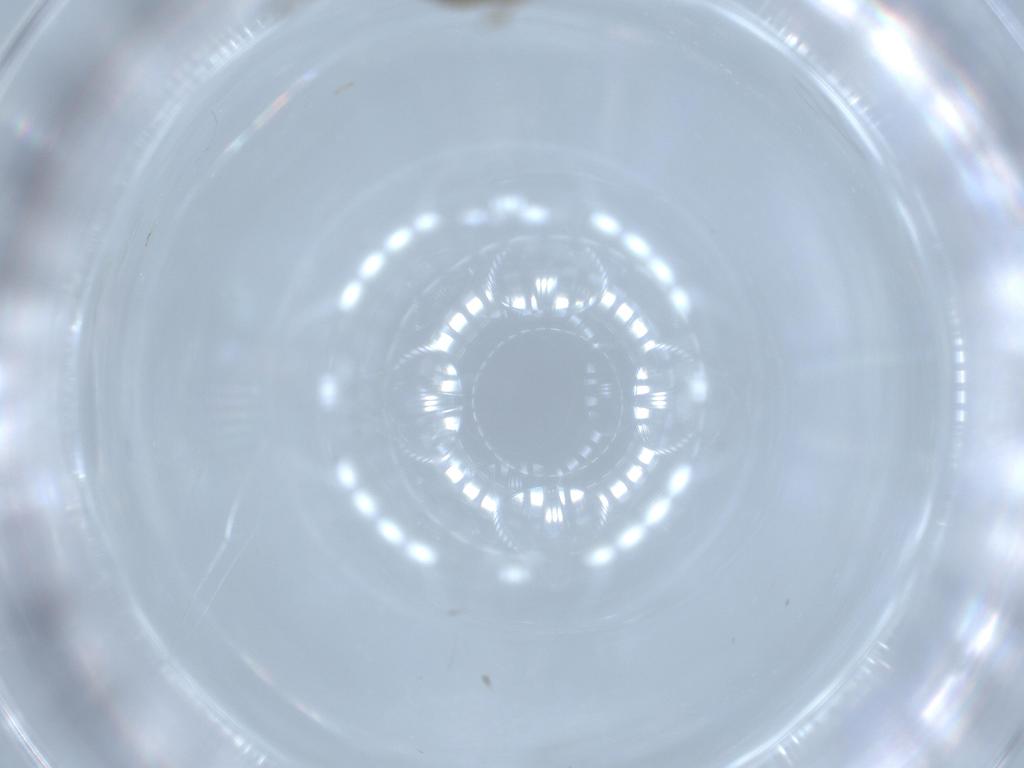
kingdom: Animalia
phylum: Arthropoda
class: Insecta
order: Diptera
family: Cecidomyiidae
